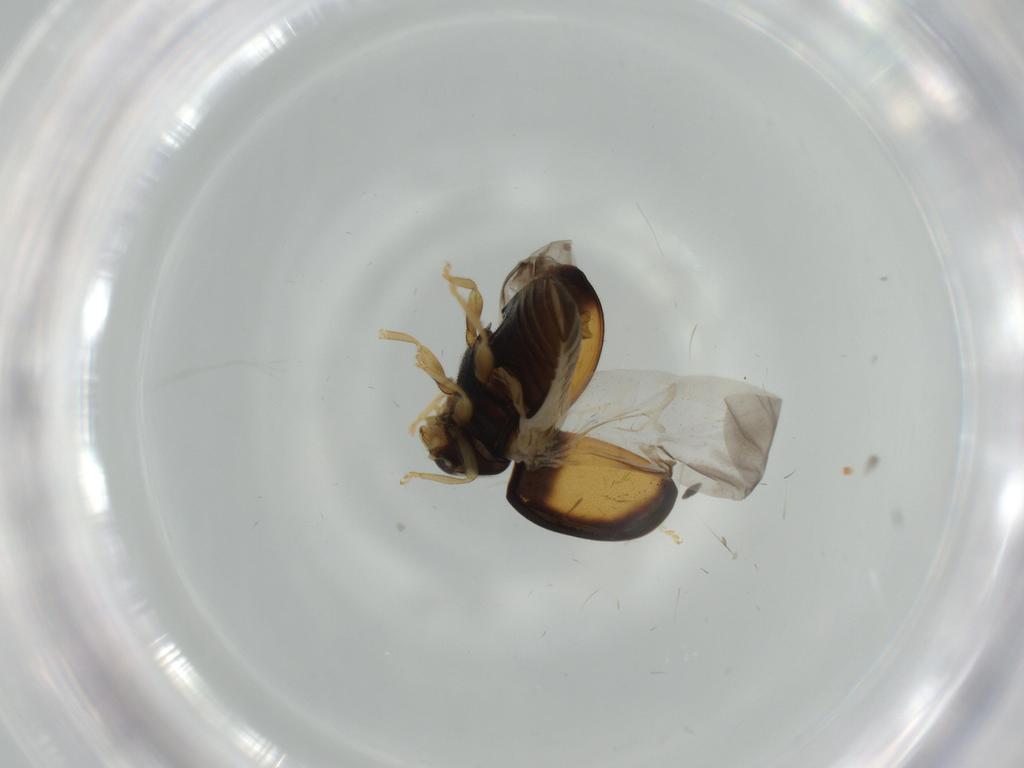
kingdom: Animalia
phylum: Arthropoda
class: Insecta
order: Coleoptera
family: Coccinellidae
